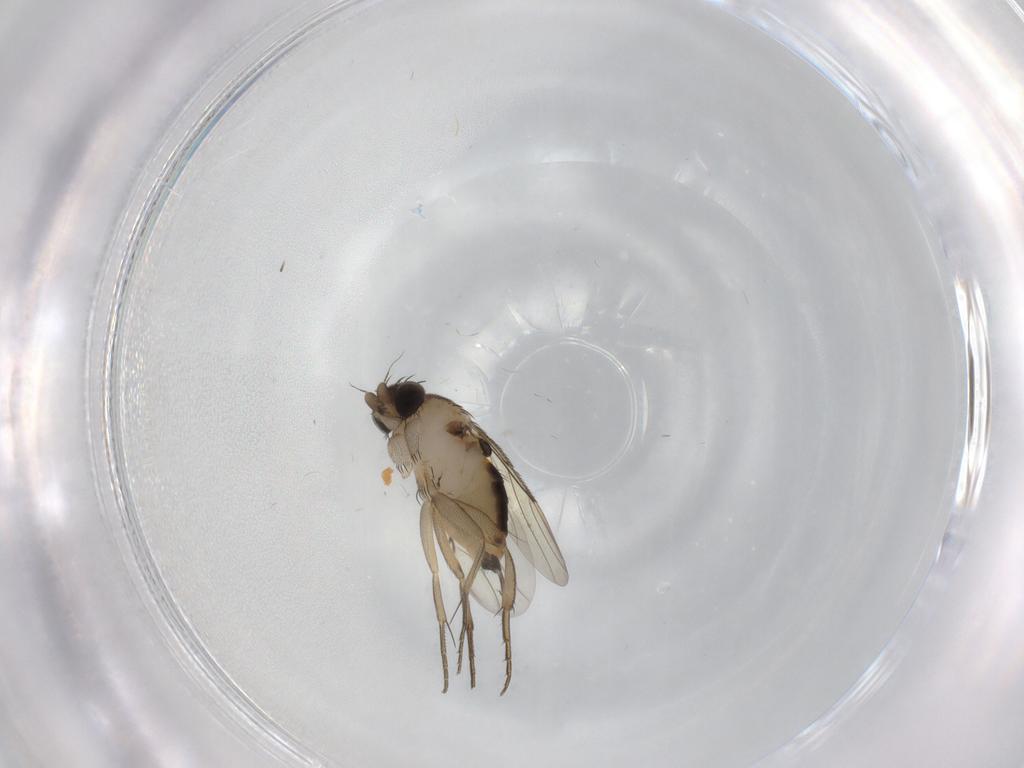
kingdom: Animalia
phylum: Arthropoda
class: Insecta
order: Diptera
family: Phoridae
